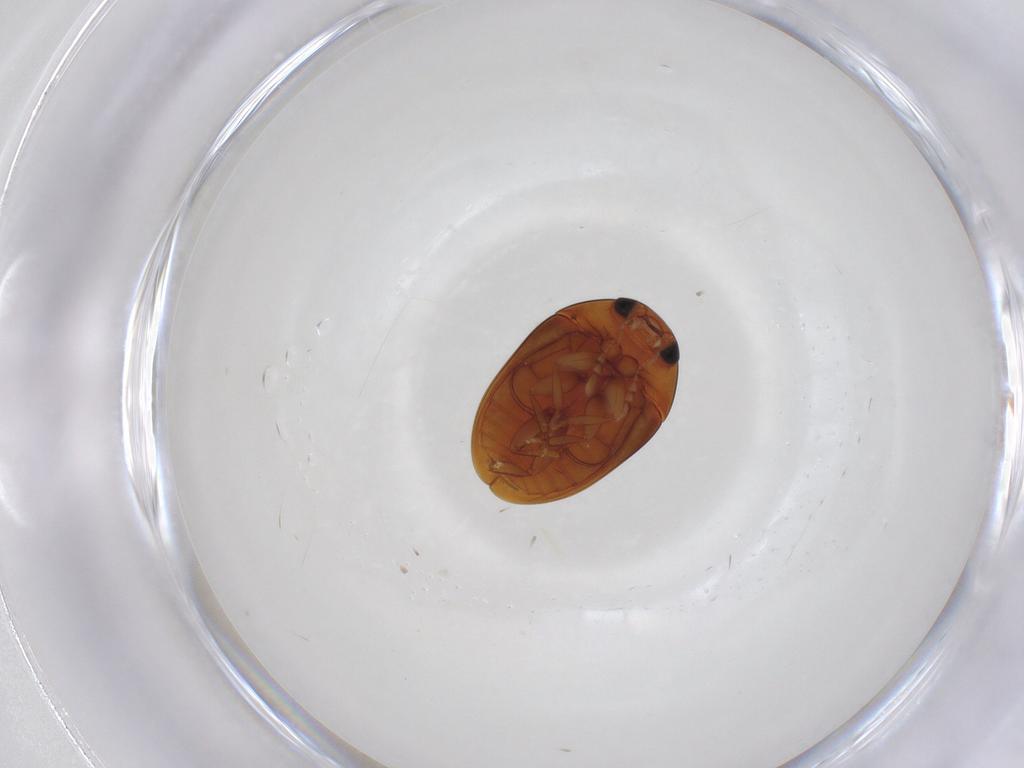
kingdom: Animalia
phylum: Arthropoda
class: Insecta
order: Coleoptera
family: Phalacridae
